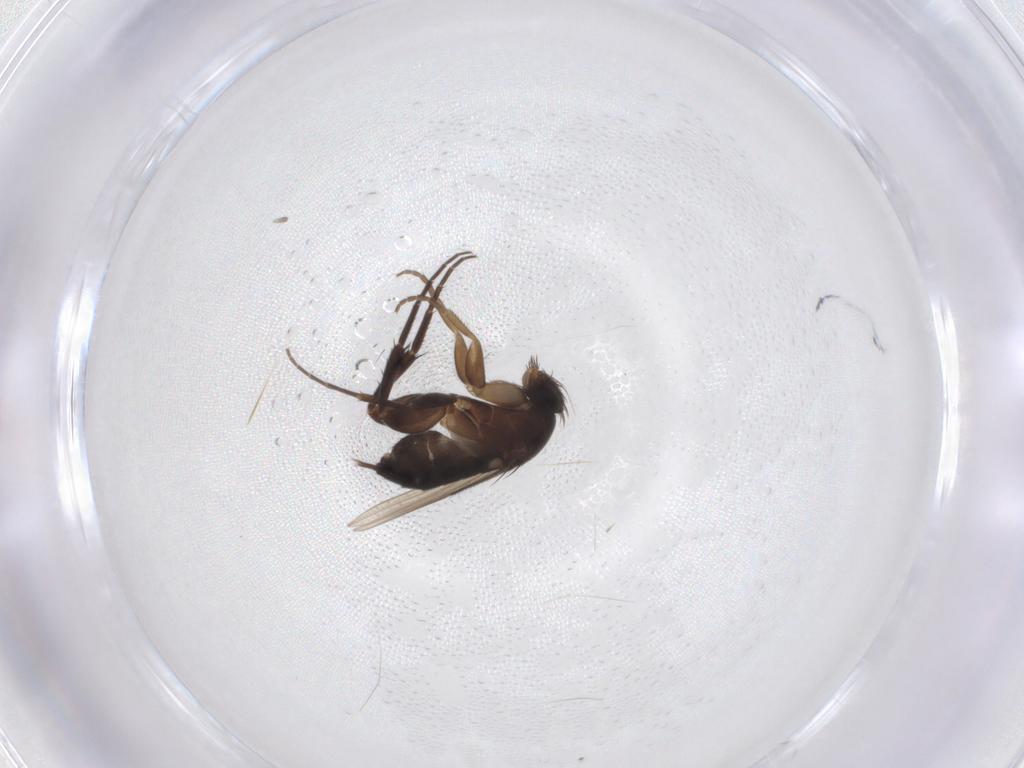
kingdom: Animalia
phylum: Arthropoda
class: Insecta
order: Diptera
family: Phoridae
